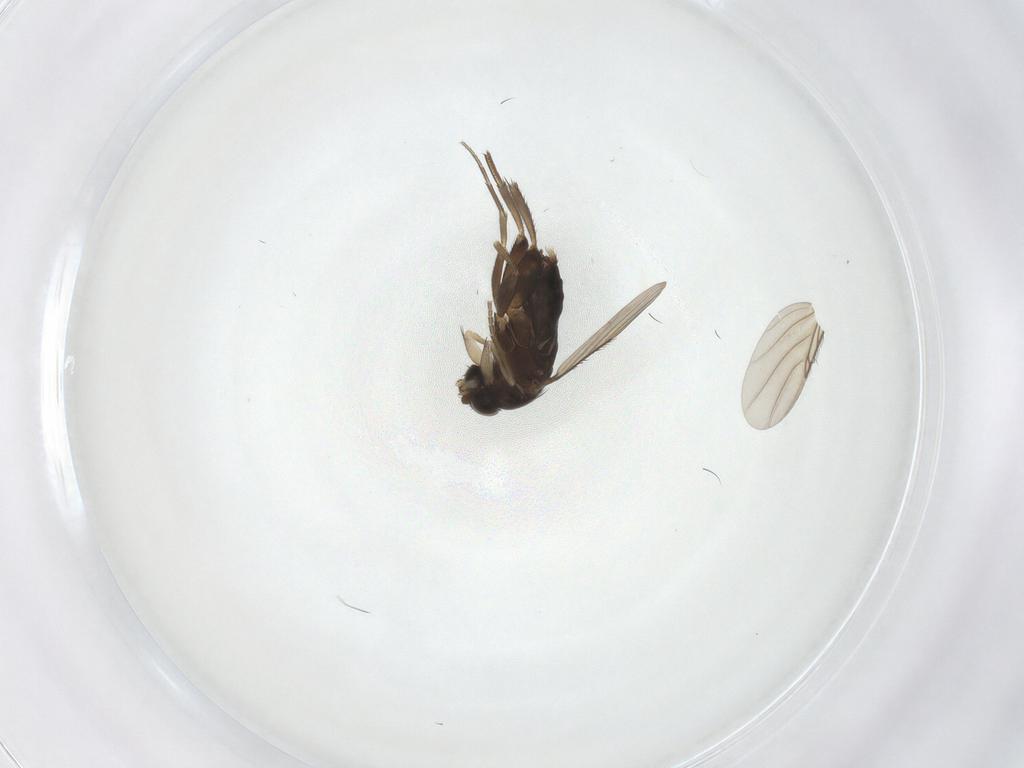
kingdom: Animalia
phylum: Arthropoda
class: Insecta
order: Diptera
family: Phoridae
